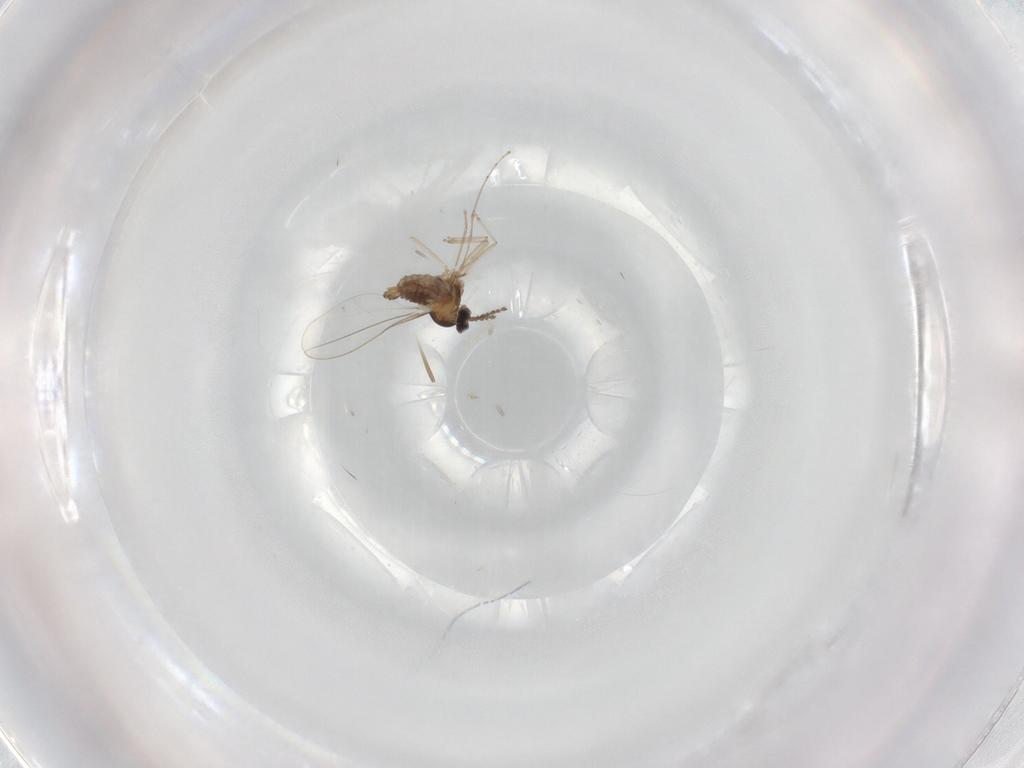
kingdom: Animalia
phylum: Arthropoda
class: Insecta
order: Diptera
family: Cecidomyiidae
